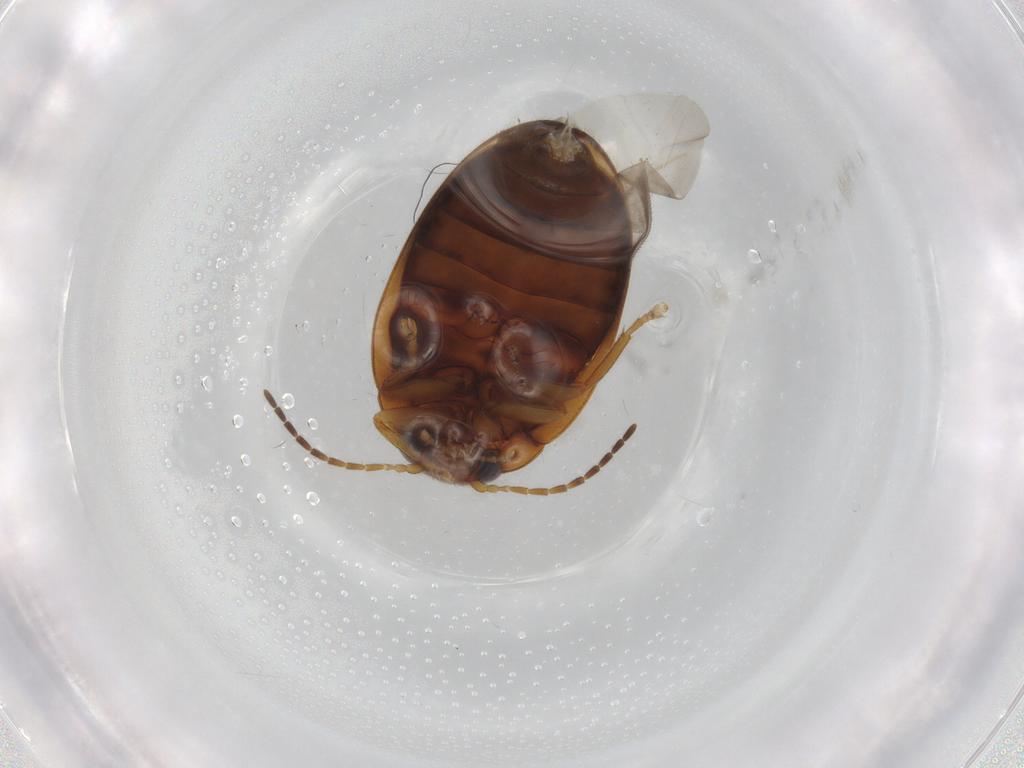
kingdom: Animalia
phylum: Arthropoda
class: Insecta
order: Coleoptera
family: Scirtidae
